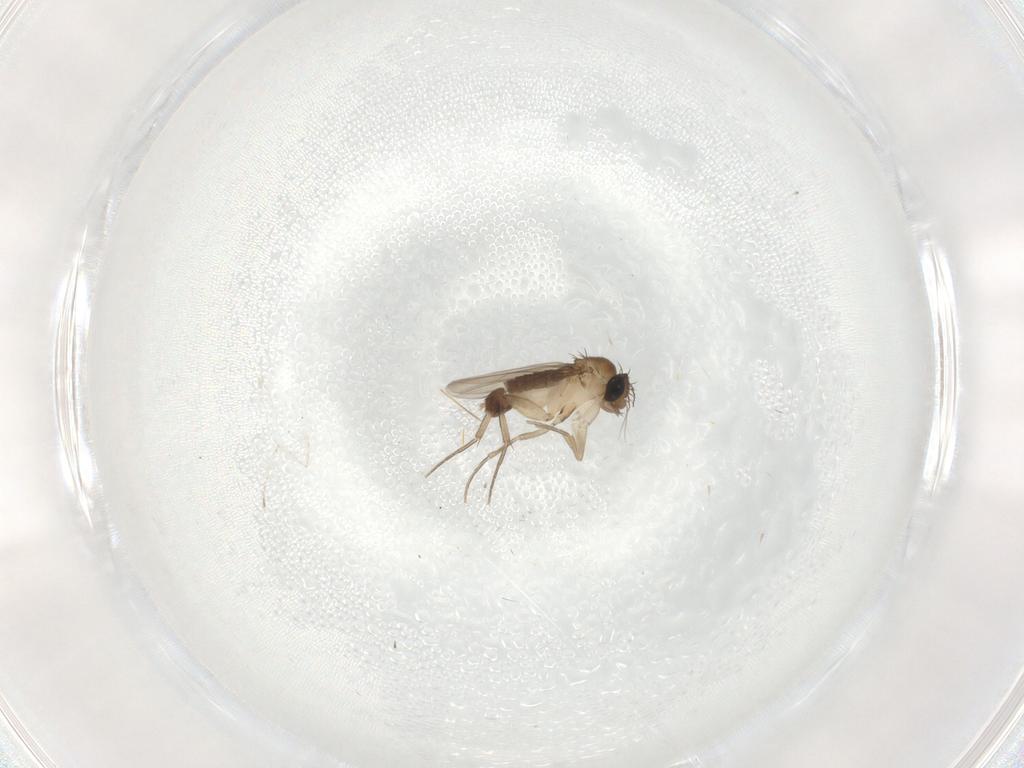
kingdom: Animalia
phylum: Arthropoda
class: Insecta
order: Diptera
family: Phoridae
